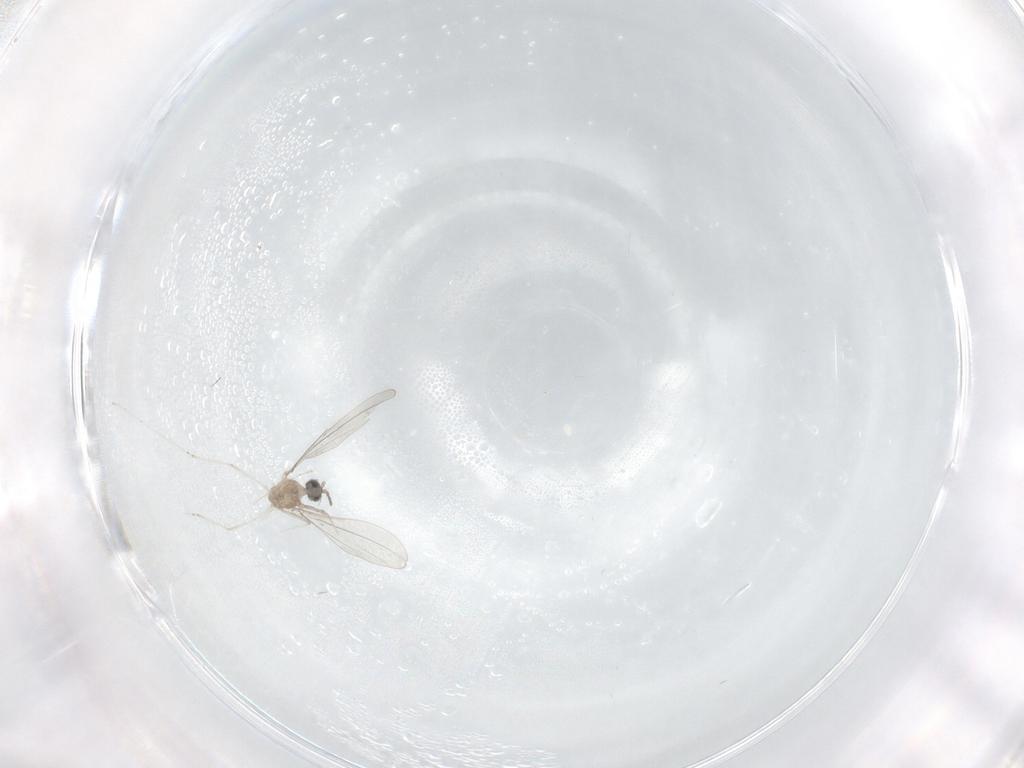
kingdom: Animalia
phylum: Arthropoda
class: Insecta
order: Diptera
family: Cecidomyiidae
